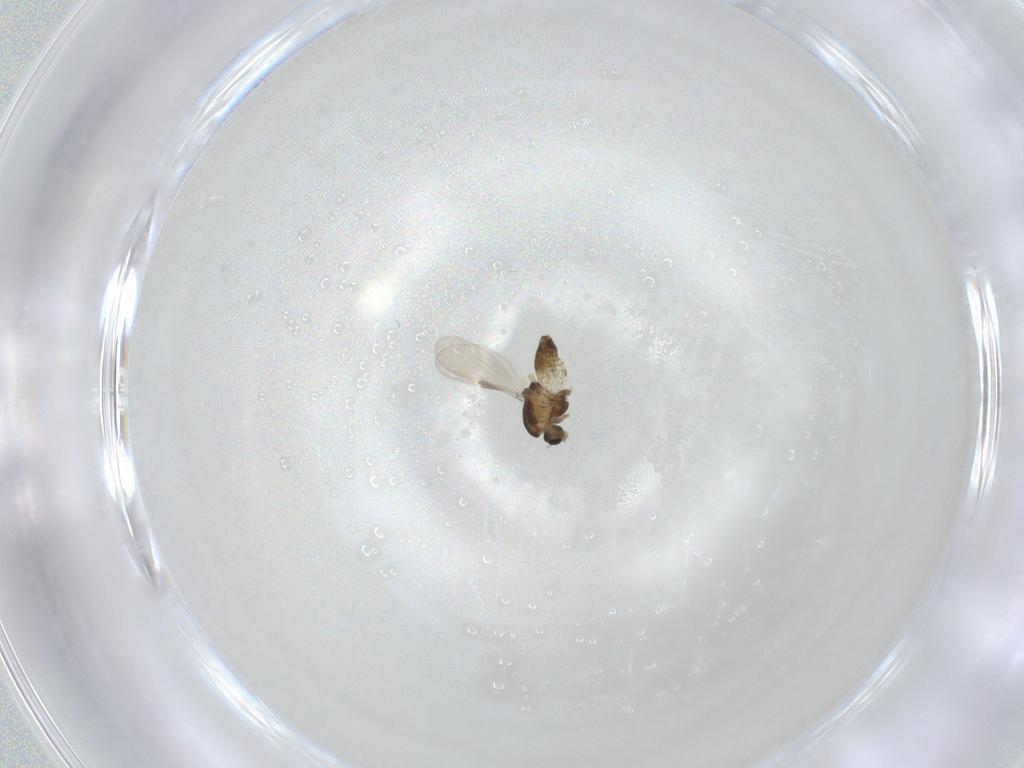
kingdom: Animalia
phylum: Arthropoda
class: Insecta
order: Diptera
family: Chironomidae
